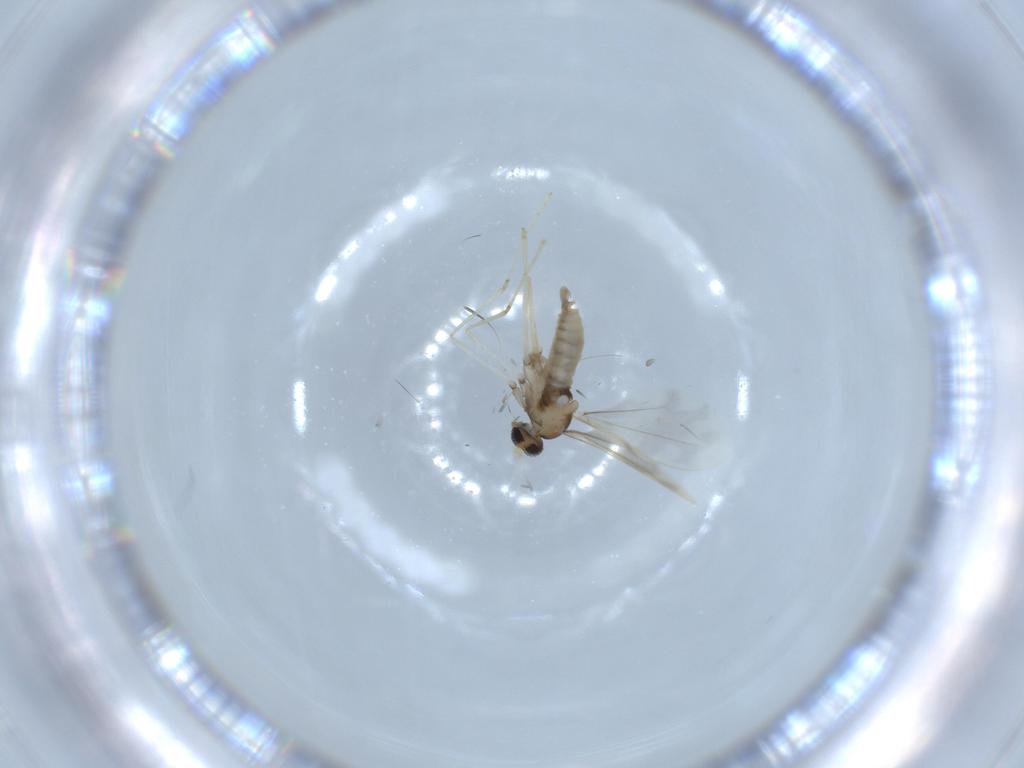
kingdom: Animalia
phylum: Arthropoda
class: Insecta
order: Diptera
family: Cecidomyiidae
